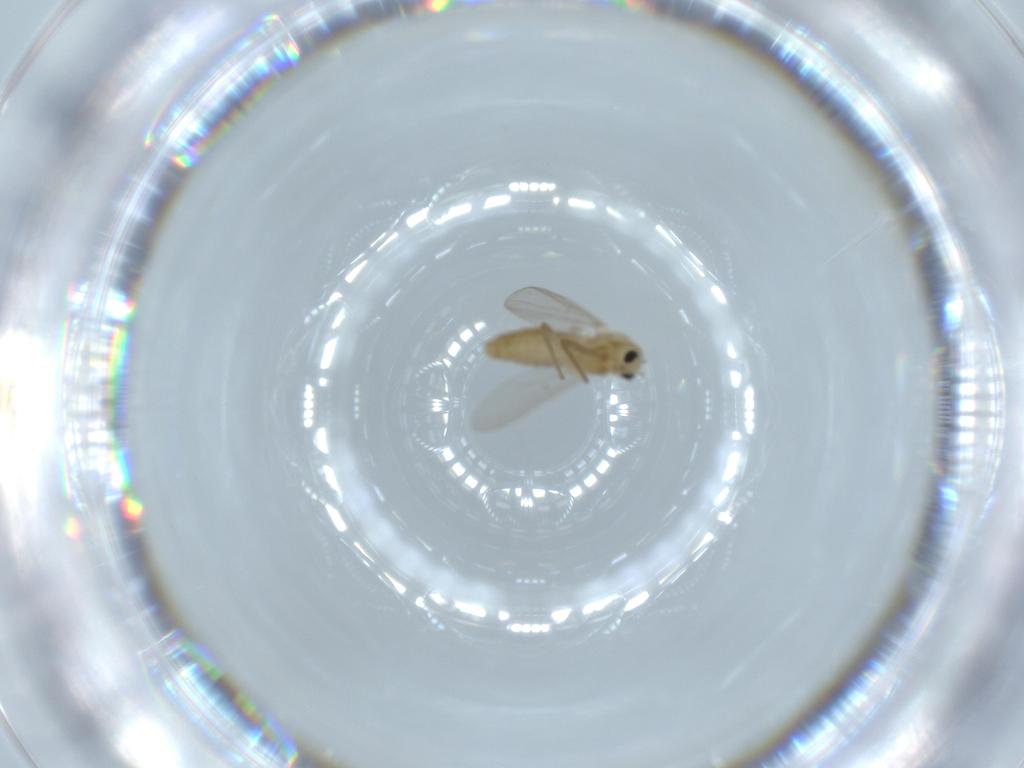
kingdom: Animalia
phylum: Arthropoda
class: Insecta
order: Diptera
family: Chironomidae
